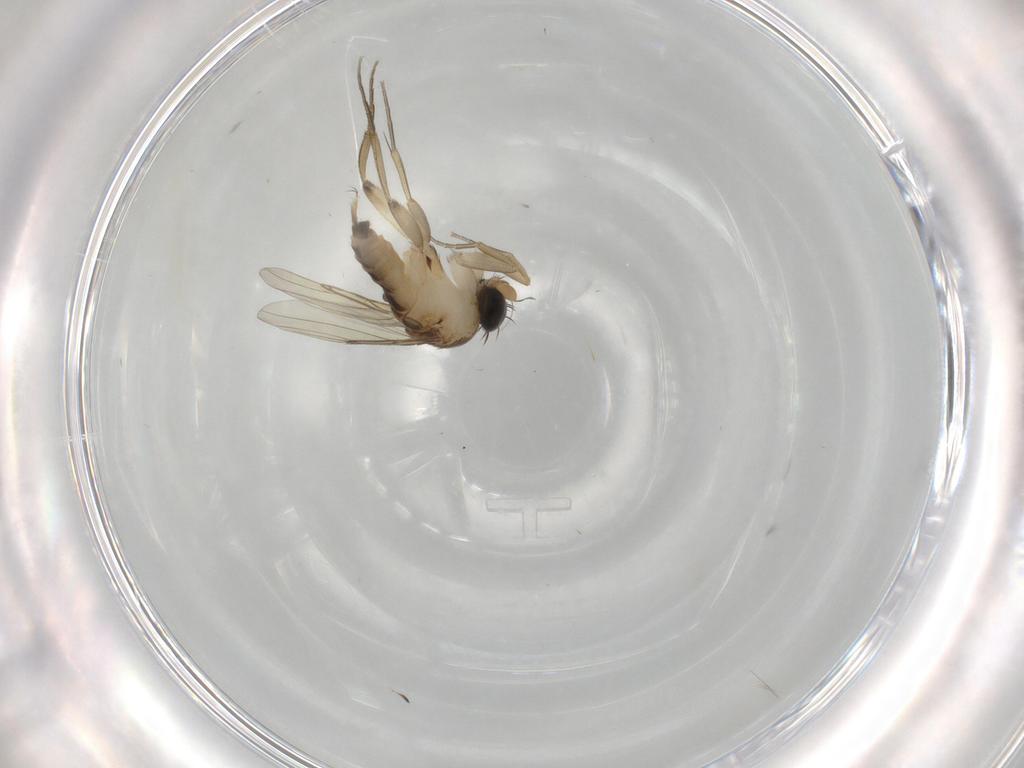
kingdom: Animalia
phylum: Arthropoda
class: Insecta
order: Diptera
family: Phoridae
